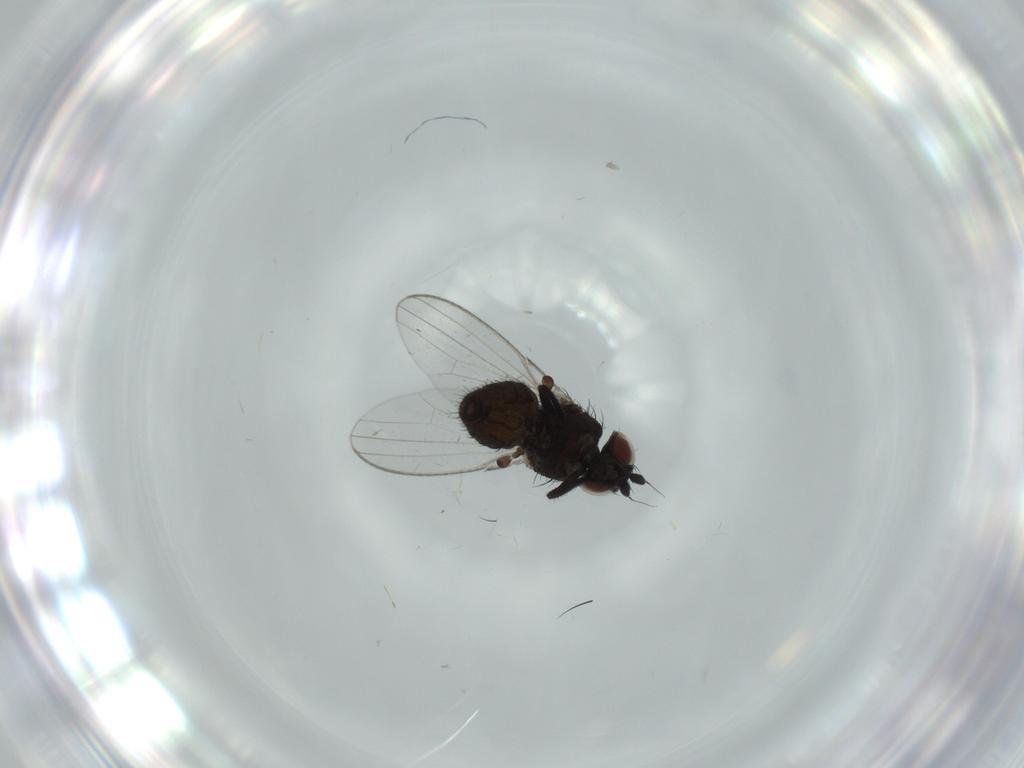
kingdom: Animalia
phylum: Arthropoda
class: Insecta
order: Diptera
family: Milichiidae
